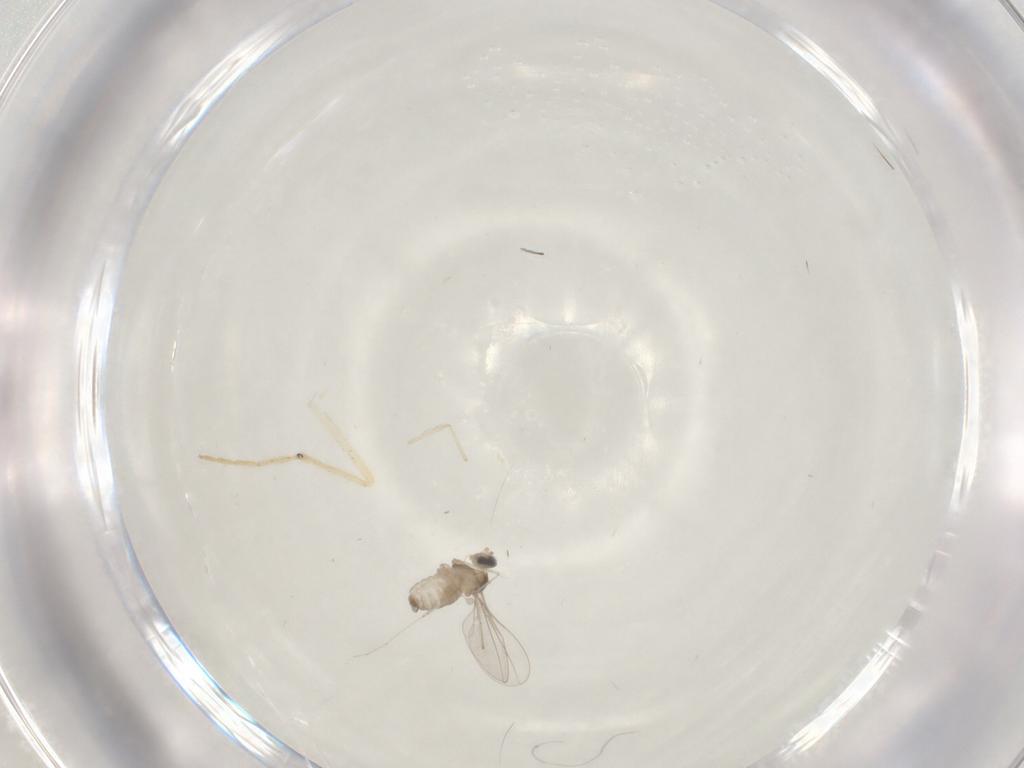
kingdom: Animalia
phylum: Arthropoda
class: Insecta
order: Diptera
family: Cecidomyiidae
